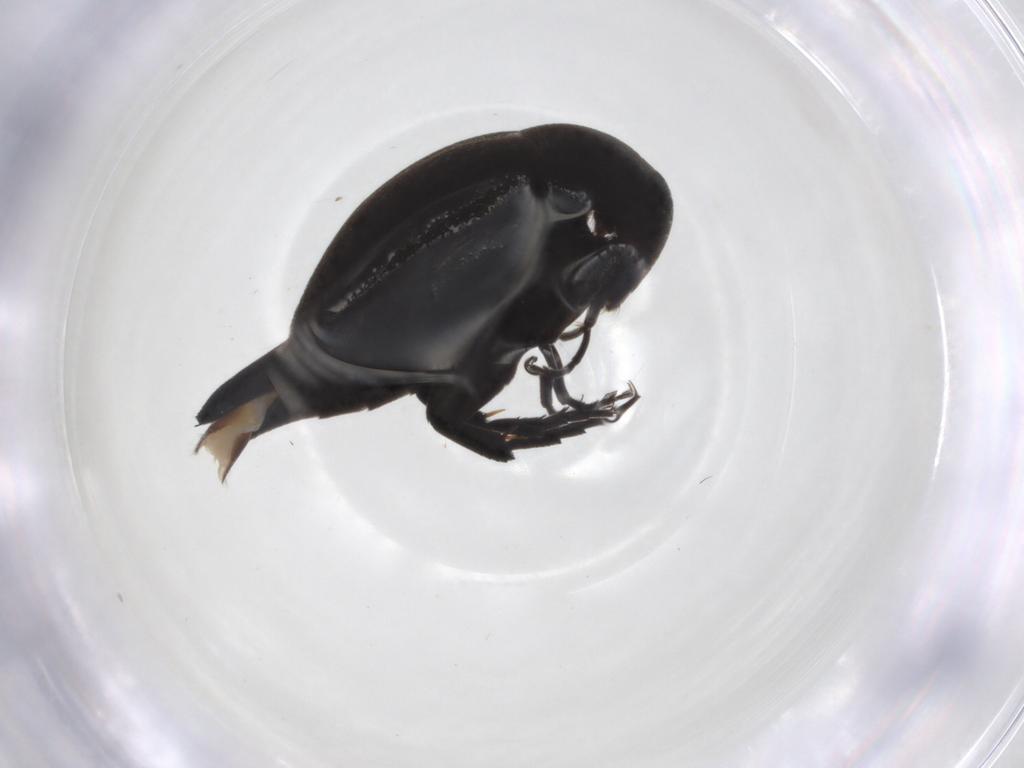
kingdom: Animalia
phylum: Arthropoda
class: Insecta
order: Coleoptera
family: Mordellidae
